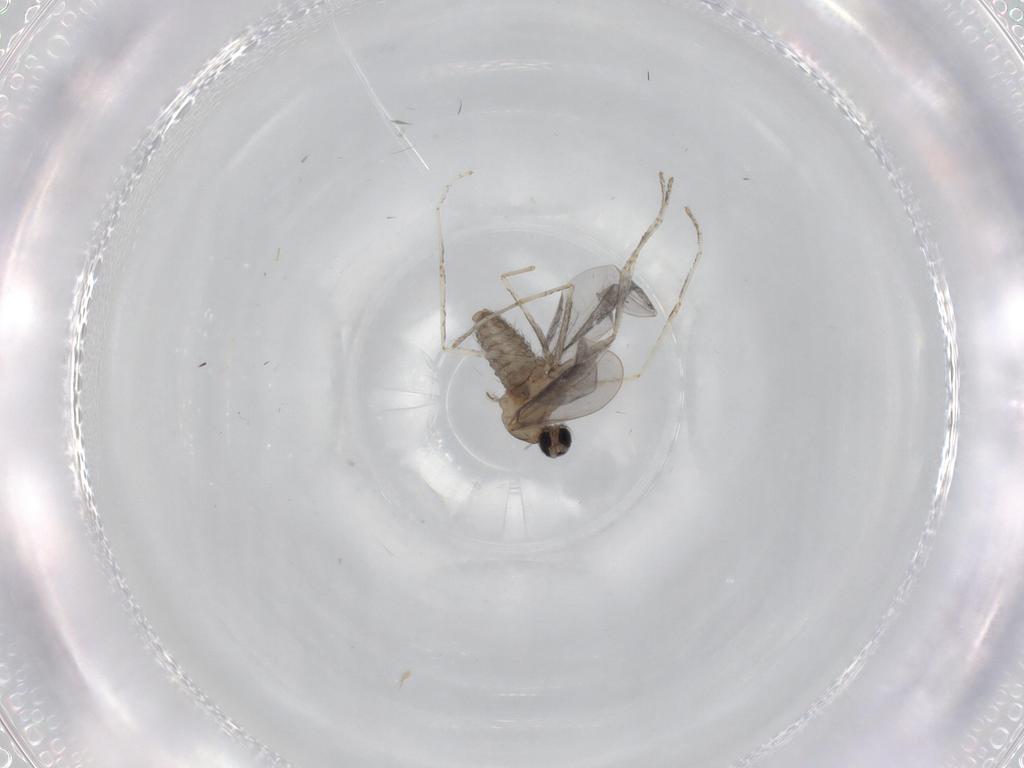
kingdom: Animalia
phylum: Arthropoda
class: Insecta
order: Diptera
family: Cecidomyiidae
